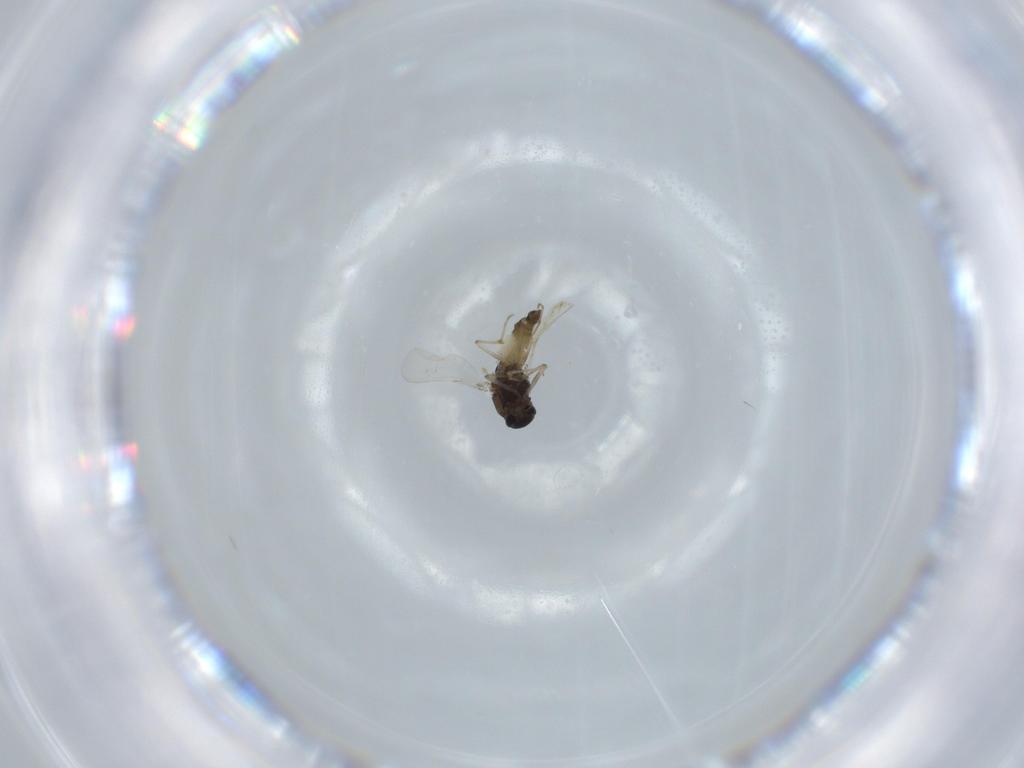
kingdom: Animalia
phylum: Arthropoda
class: Insecta
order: Diptera
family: Chironomidae
